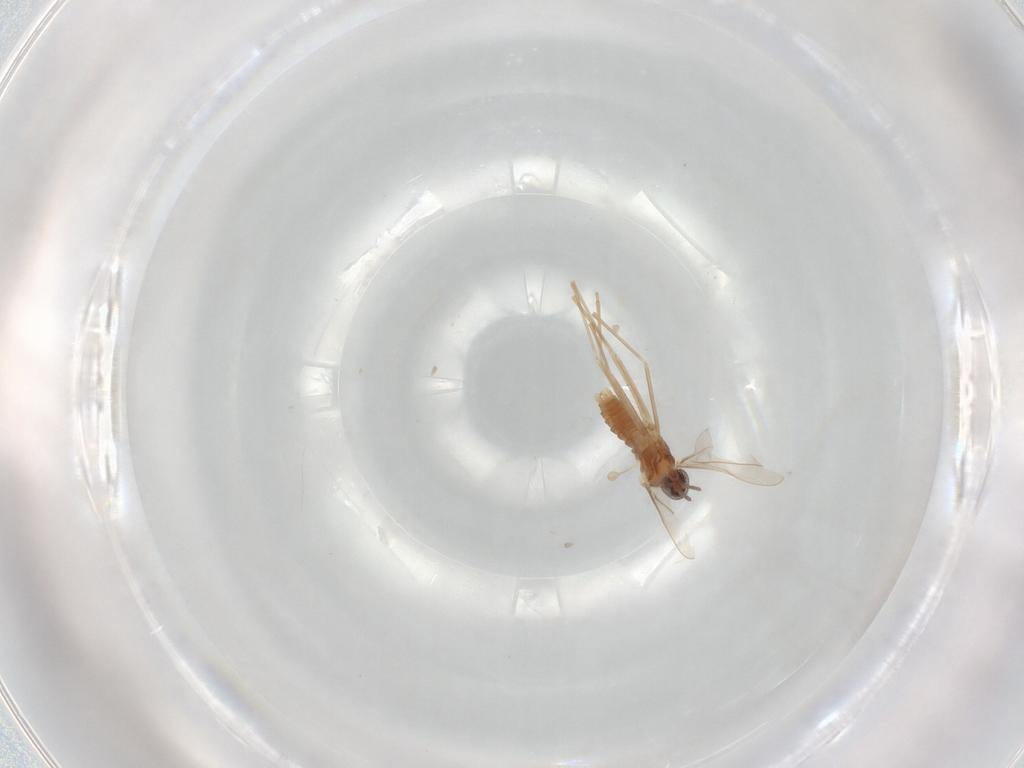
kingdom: Animalia
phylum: Arthropoda
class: Insecta
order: Diptera
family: Cecidomyiidae
